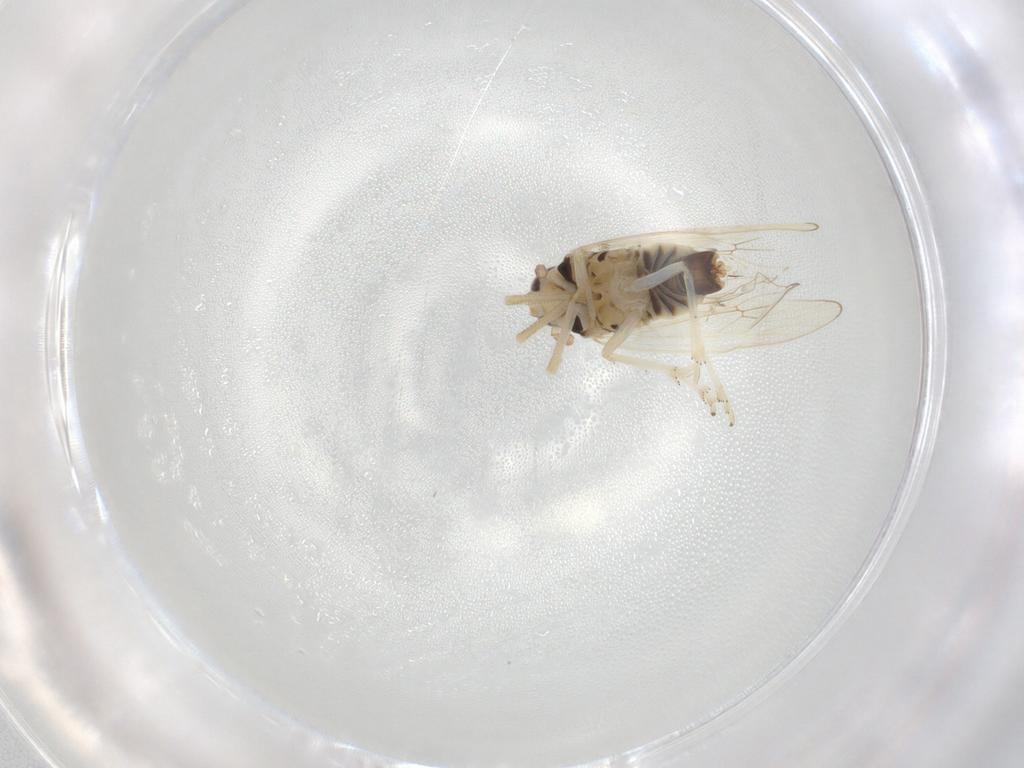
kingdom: Animalia
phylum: Arthropoda
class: Insecta
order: Hemiptera
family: Delphacidae
